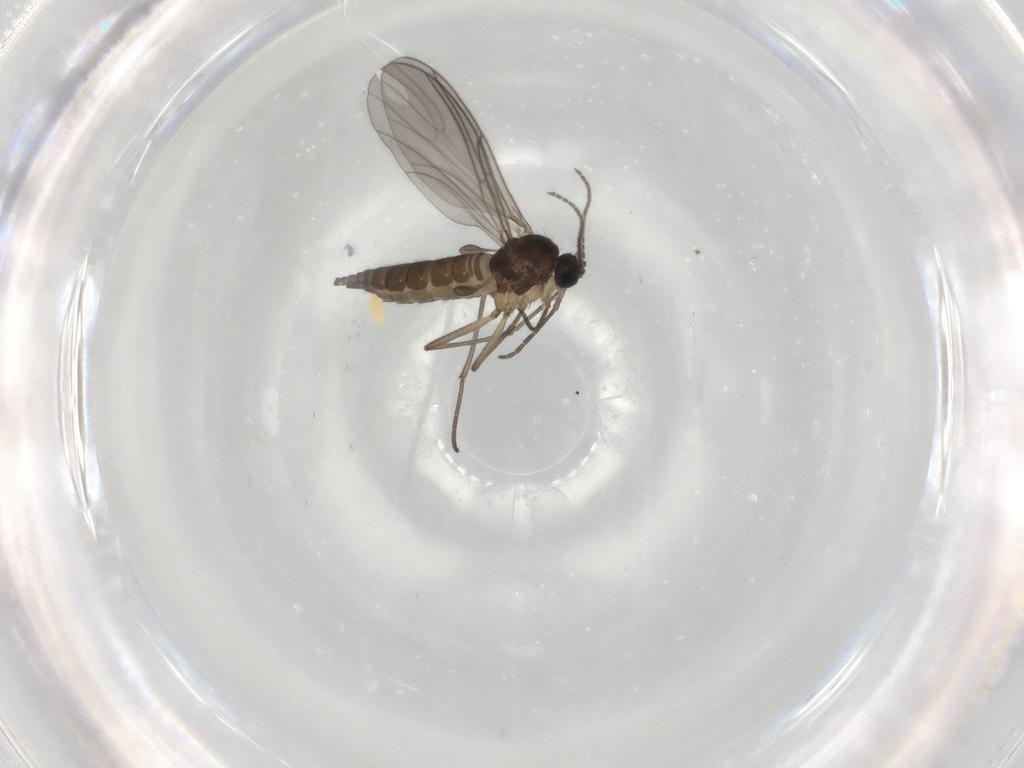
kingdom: Animalia
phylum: Arthropoda
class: Insecta
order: Diptera
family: Sciaridae
